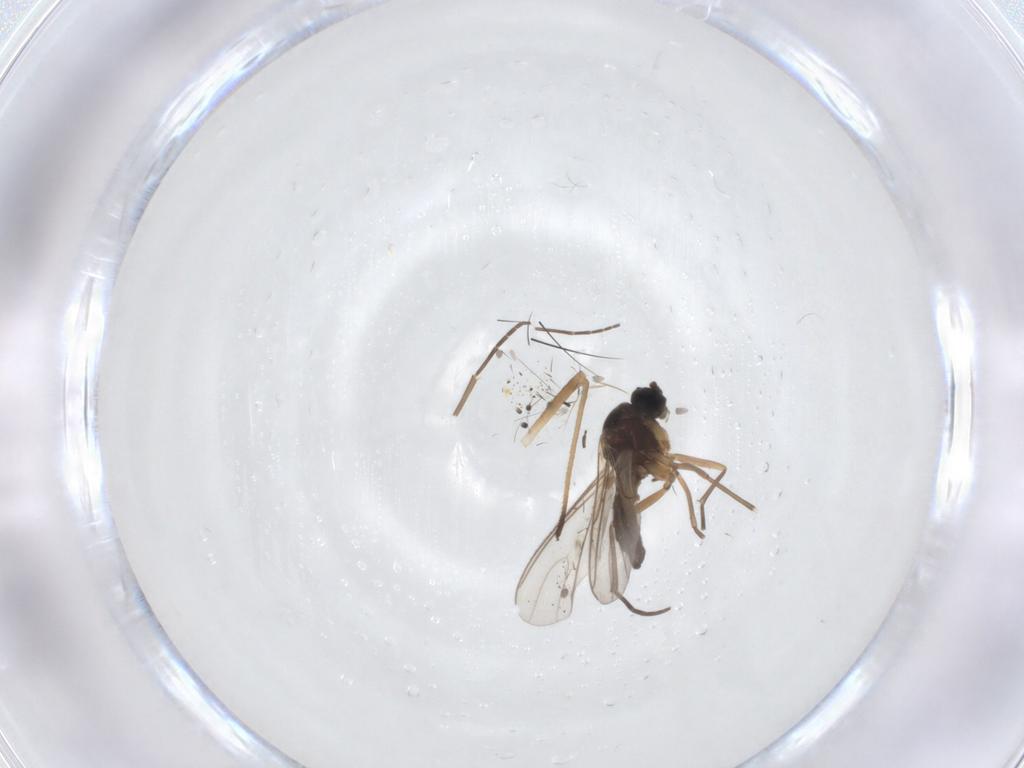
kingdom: Animalia
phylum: Arthropoda
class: Insecta
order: Diptera
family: Sciaridae
